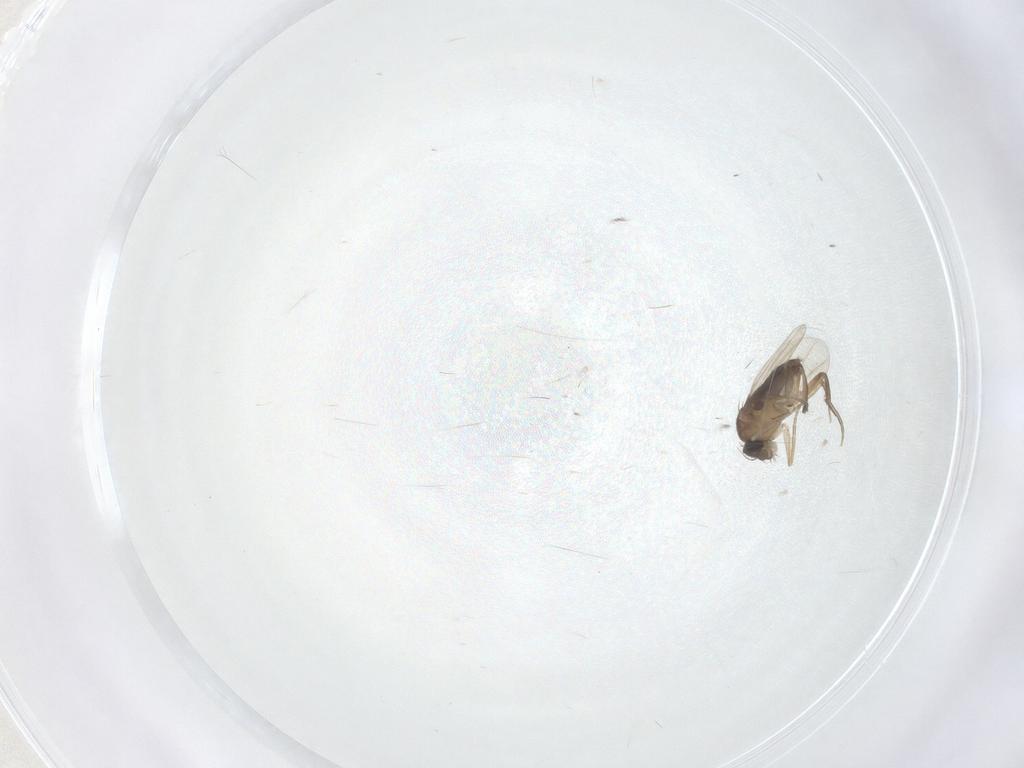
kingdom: Animalia
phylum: Arthropoda
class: Insecta
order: Diptera
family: Phoridae
